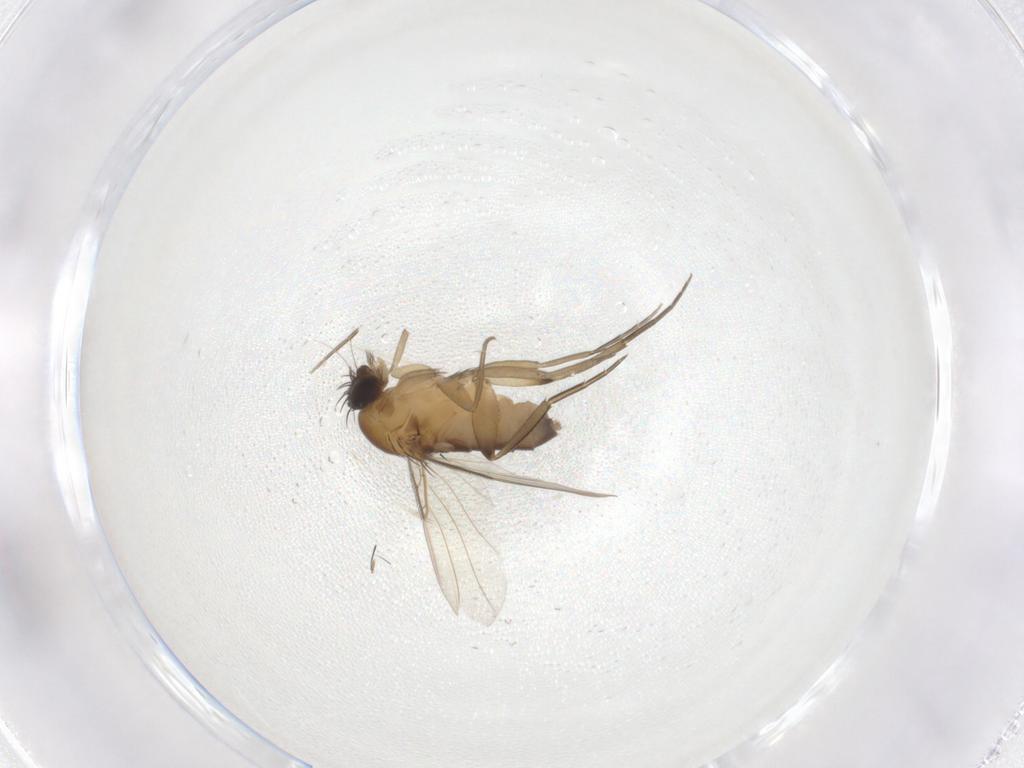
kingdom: Animalia
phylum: Arthropoda
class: Insecta
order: Diptera
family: Phoridae
